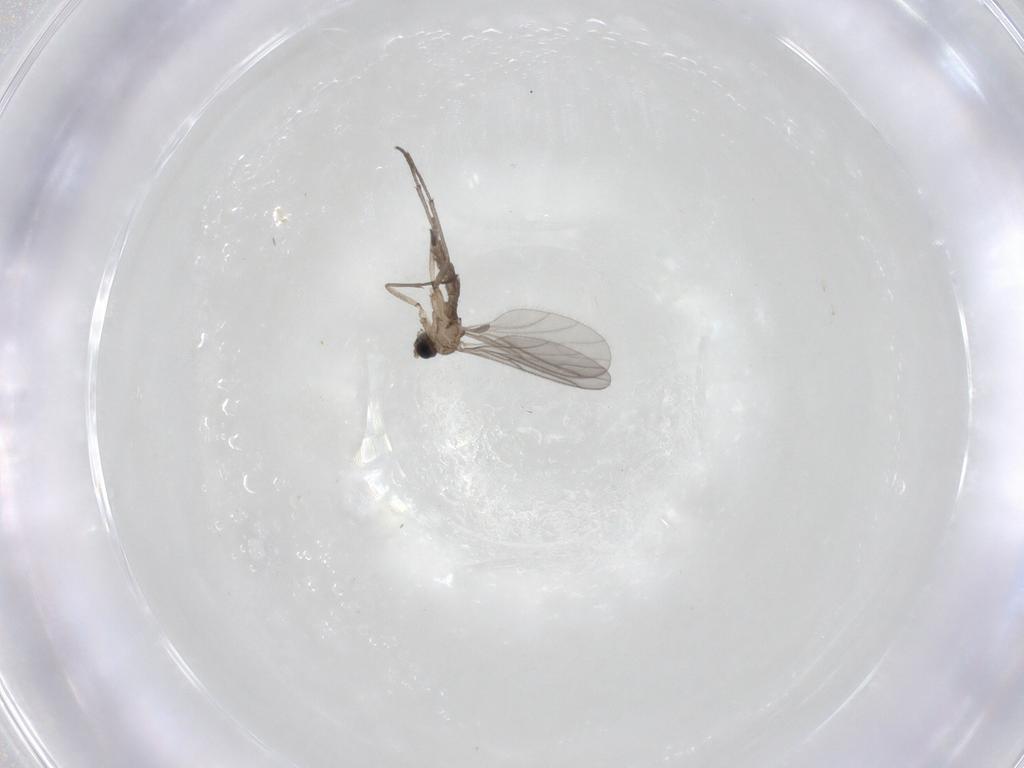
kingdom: Animalia
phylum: Arthropoda
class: Insecta
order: Diptera
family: Sciaridae
